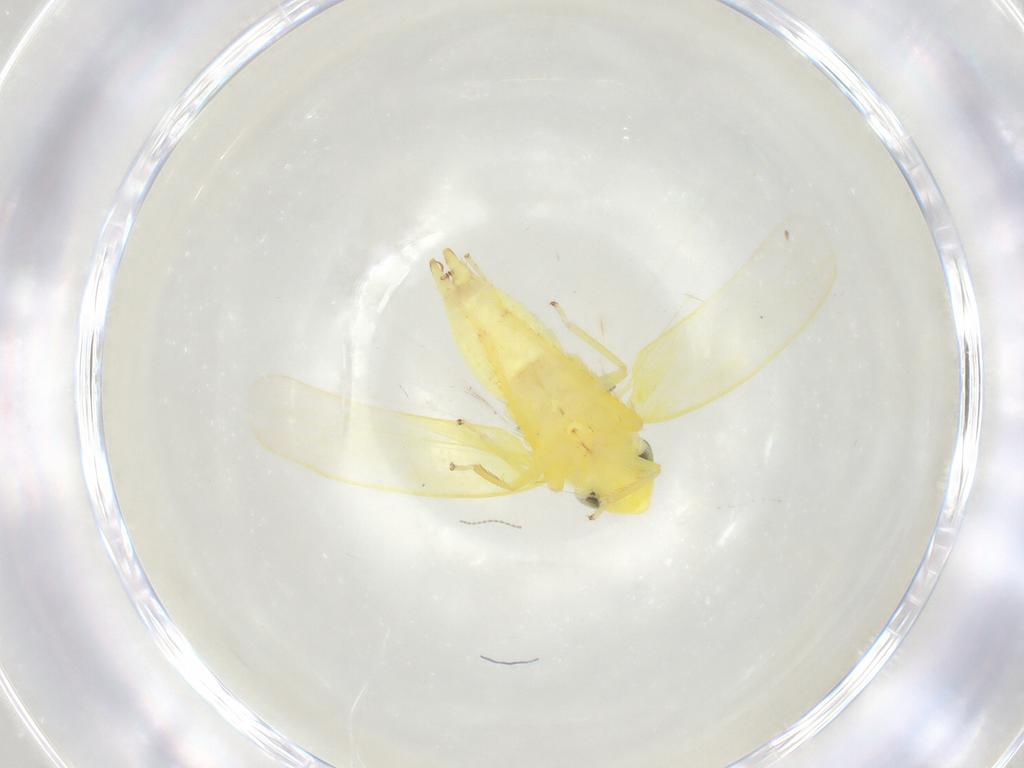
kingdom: Animalia
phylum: Arthropoda
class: Insecta
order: Hemiptera
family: Cicadellidae
